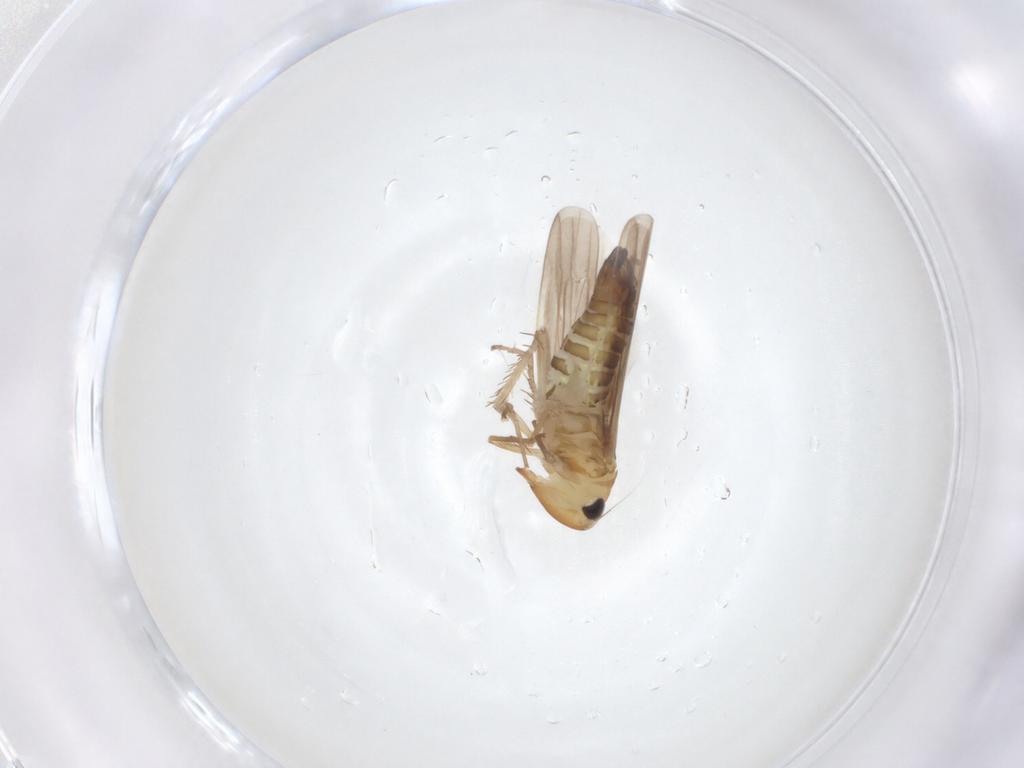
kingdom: Animalia
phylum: Arthropoda
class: Insecta
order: Hemiptera
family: Cicadellidae
